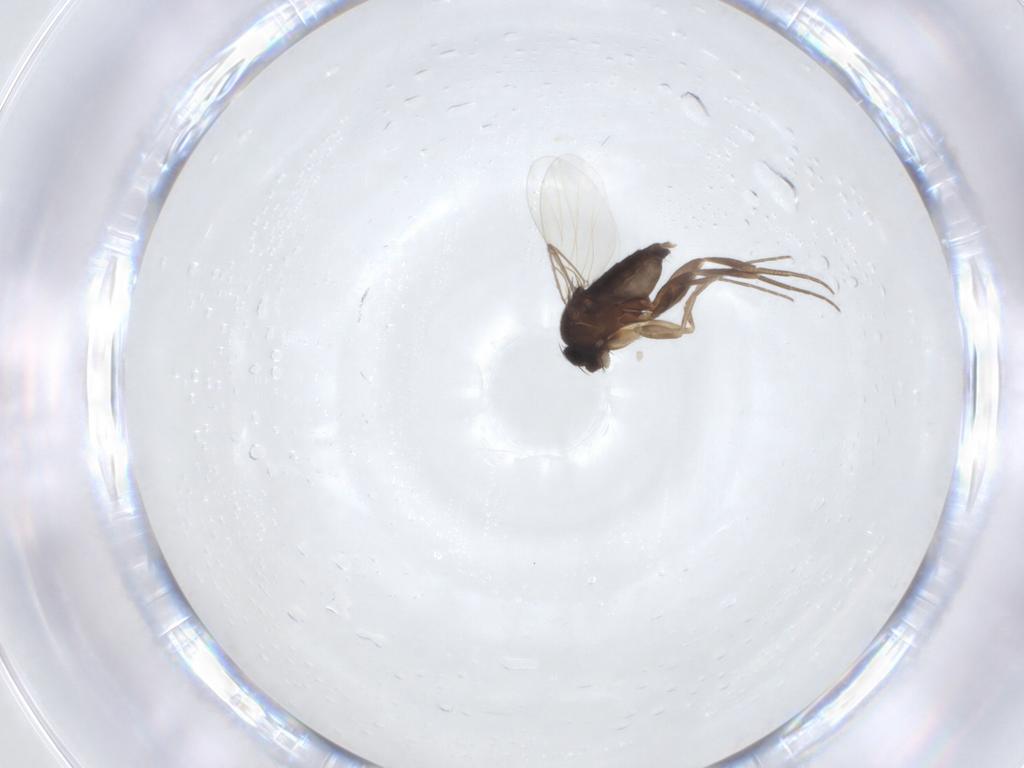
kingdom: Animalia
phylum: Arthropoda
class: Insecta
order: Diptera
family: Phoridae
